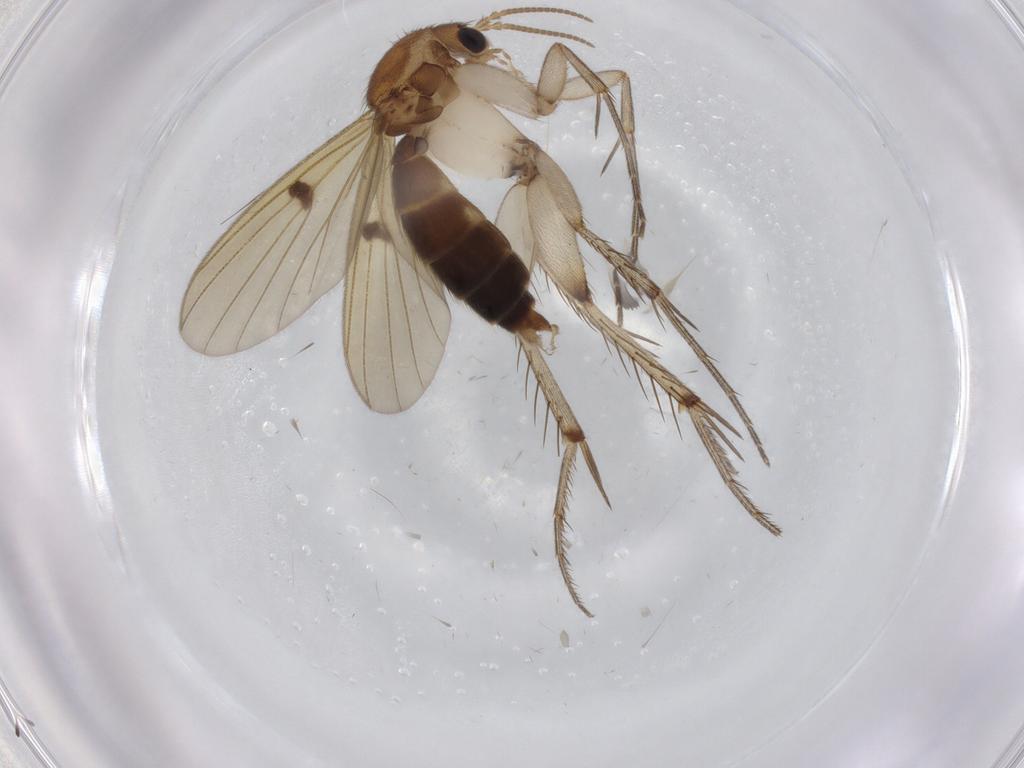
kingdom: Animalia
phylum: Arthropoda
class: Insecta
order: Diptera
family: Mycetophilidae
